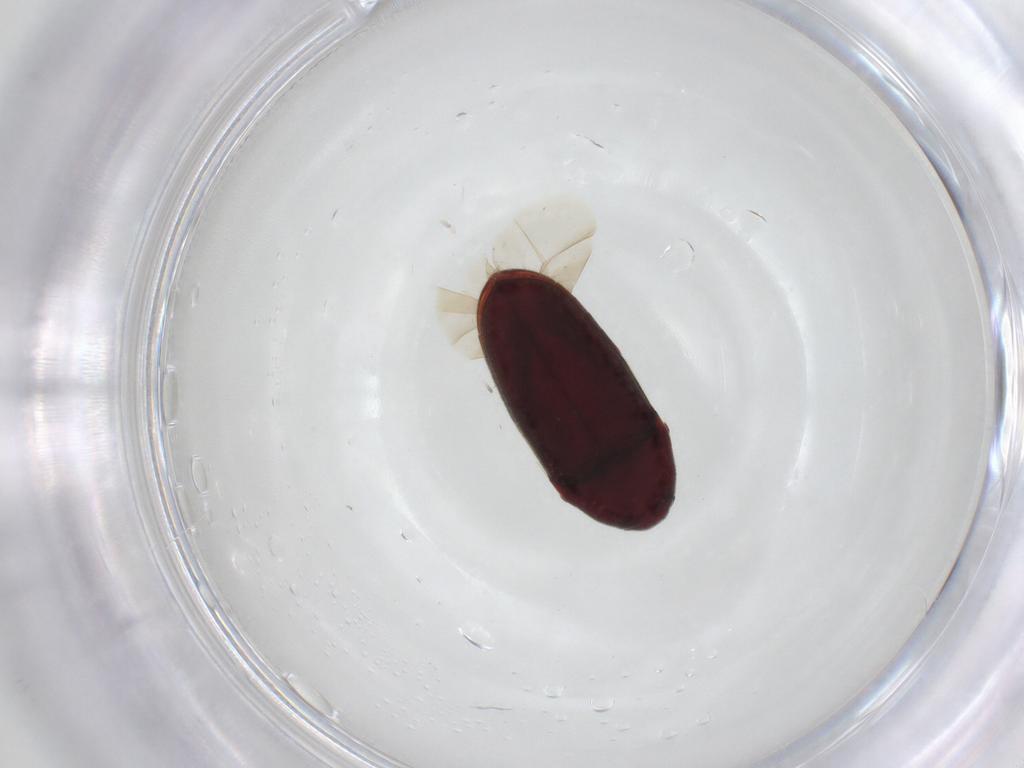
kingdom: Animalia
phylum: Arthropoda
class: Insecta
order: Coleoptera
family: Throscidae
